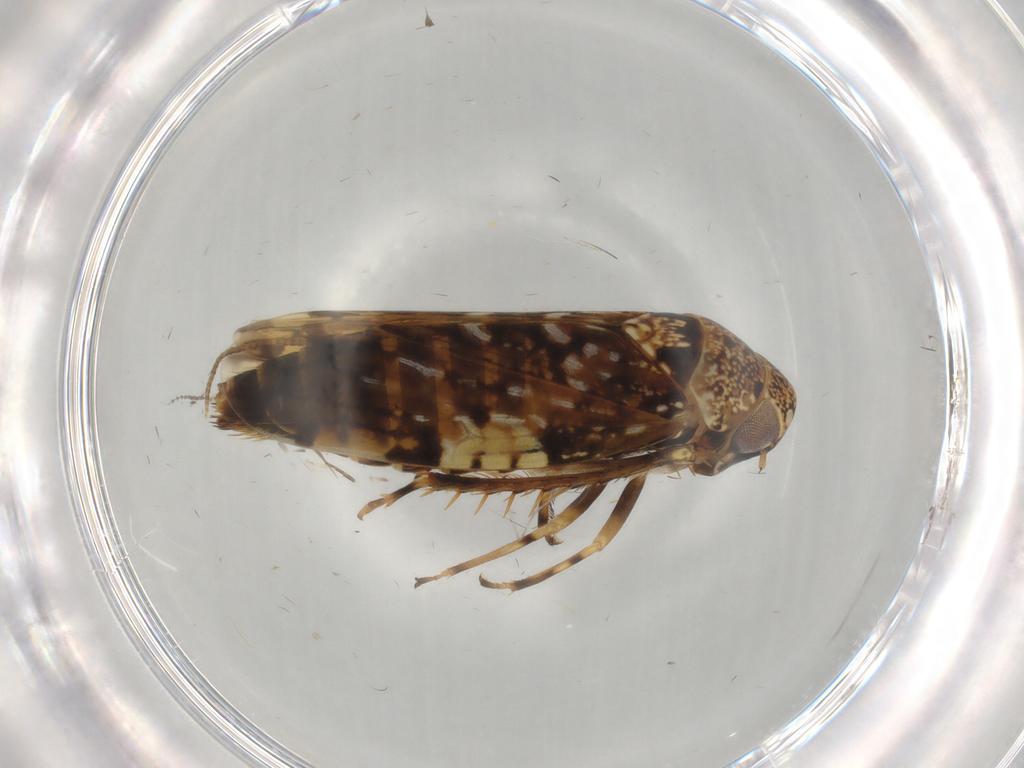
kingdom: Animalia
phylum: Arthropoda
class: Insecta
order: Hemiptera
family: Cicadellidae
